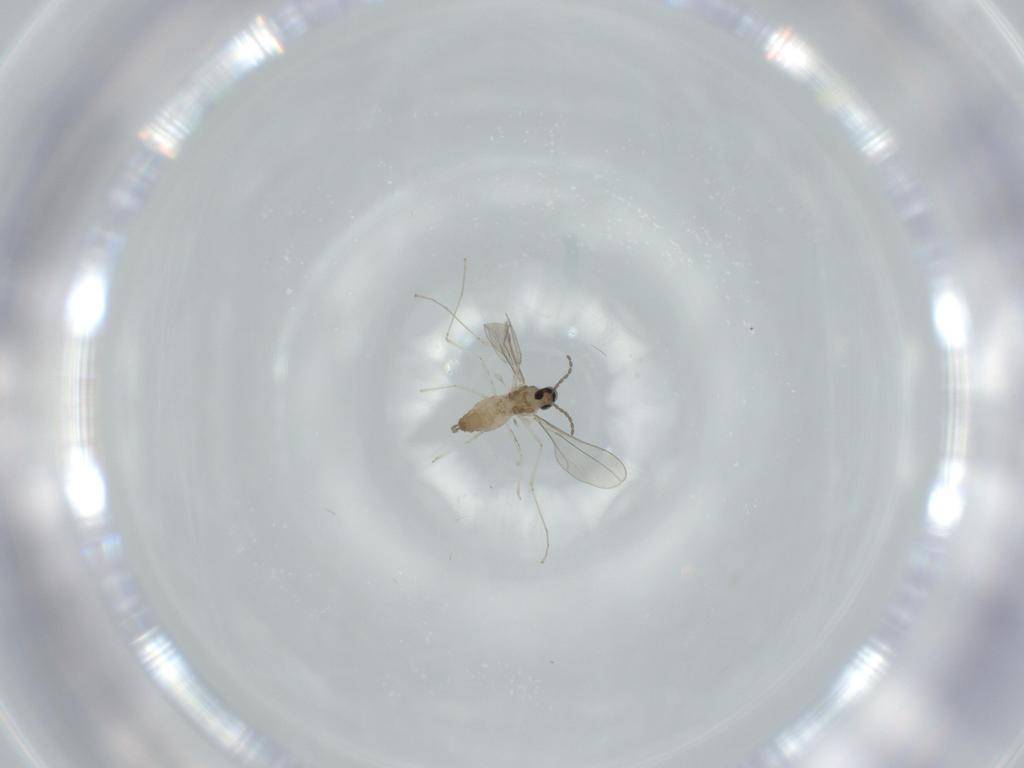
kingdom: Animalia
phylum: Arthropoda
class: Insecta
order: Diptera
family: Cecidomyiidae
